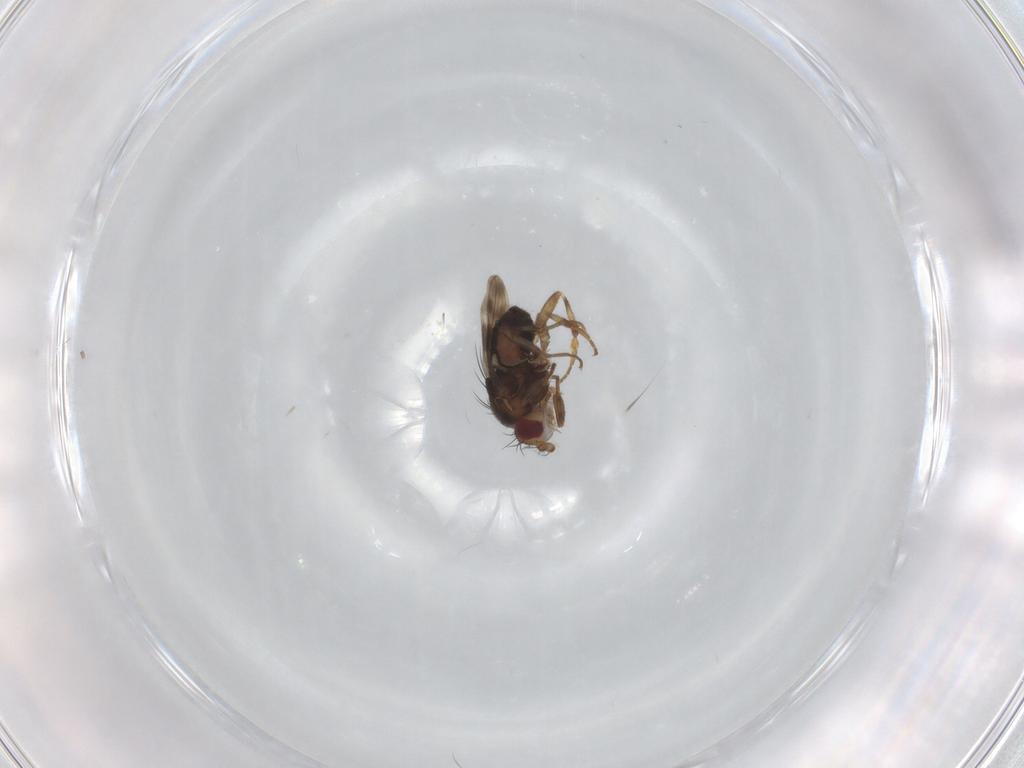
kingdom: Animalia
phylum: Arthropoda
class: Insecta
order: Diptera
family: Sphaeroceridae
